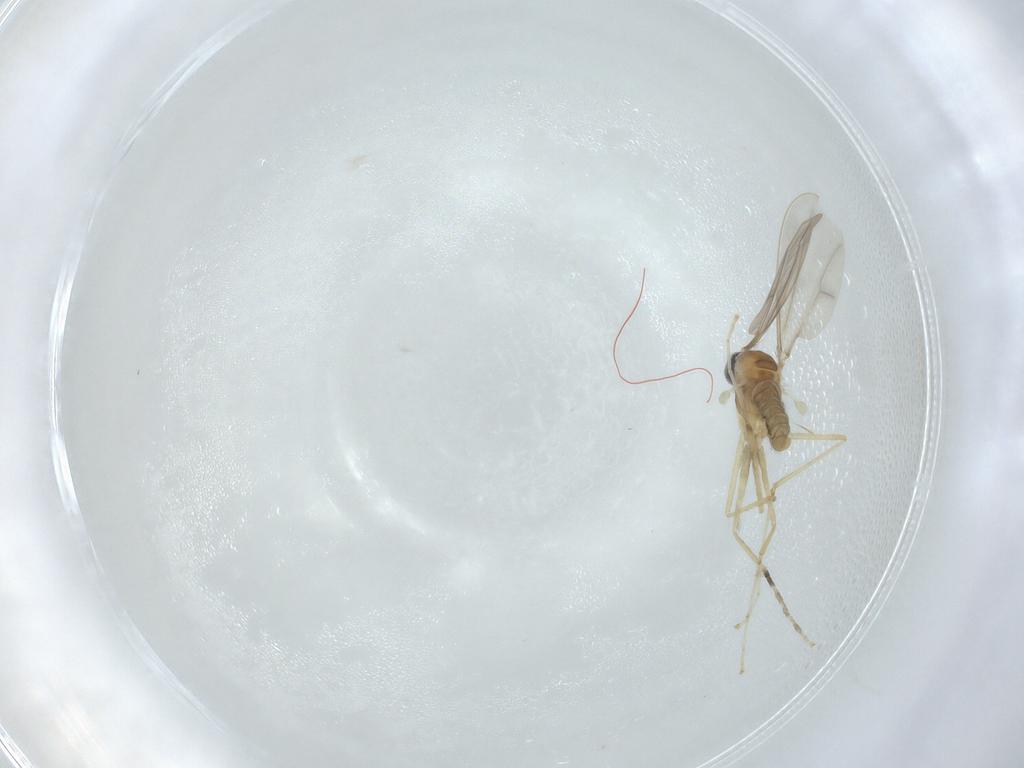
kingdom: Animalia
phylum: Arthropoda
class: Insecta
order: Diptera
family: Cecidomyiidae
